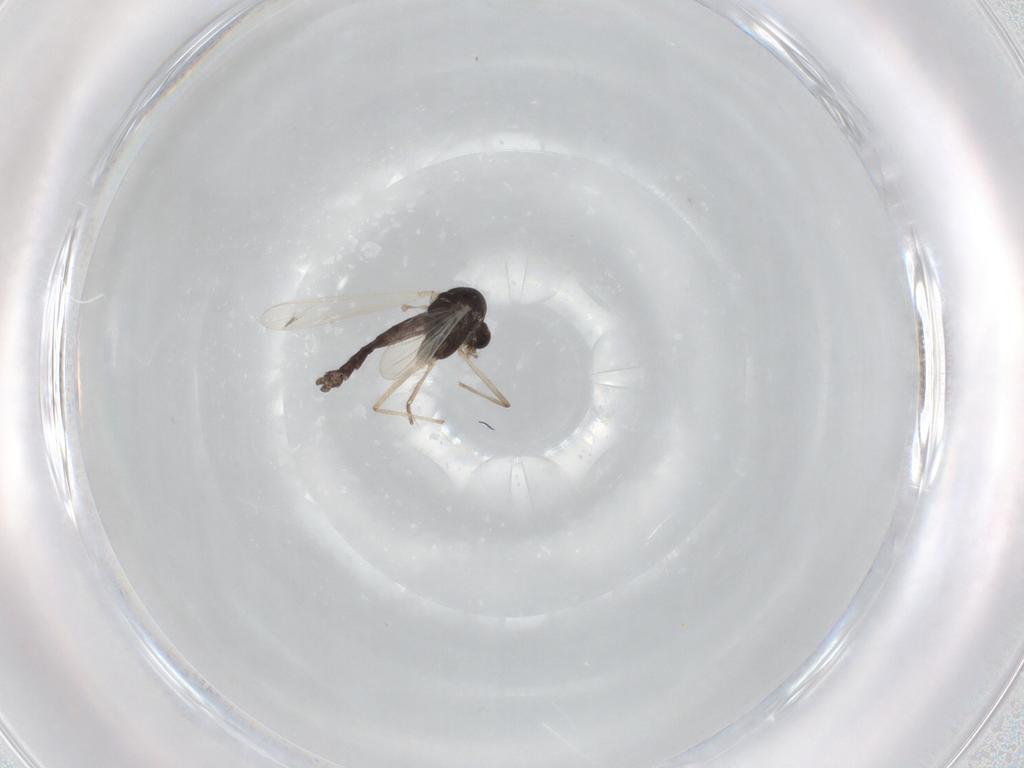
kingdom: Animalia
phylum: Arthropoda
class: Insecta
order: Diptera
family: Chironomidae
